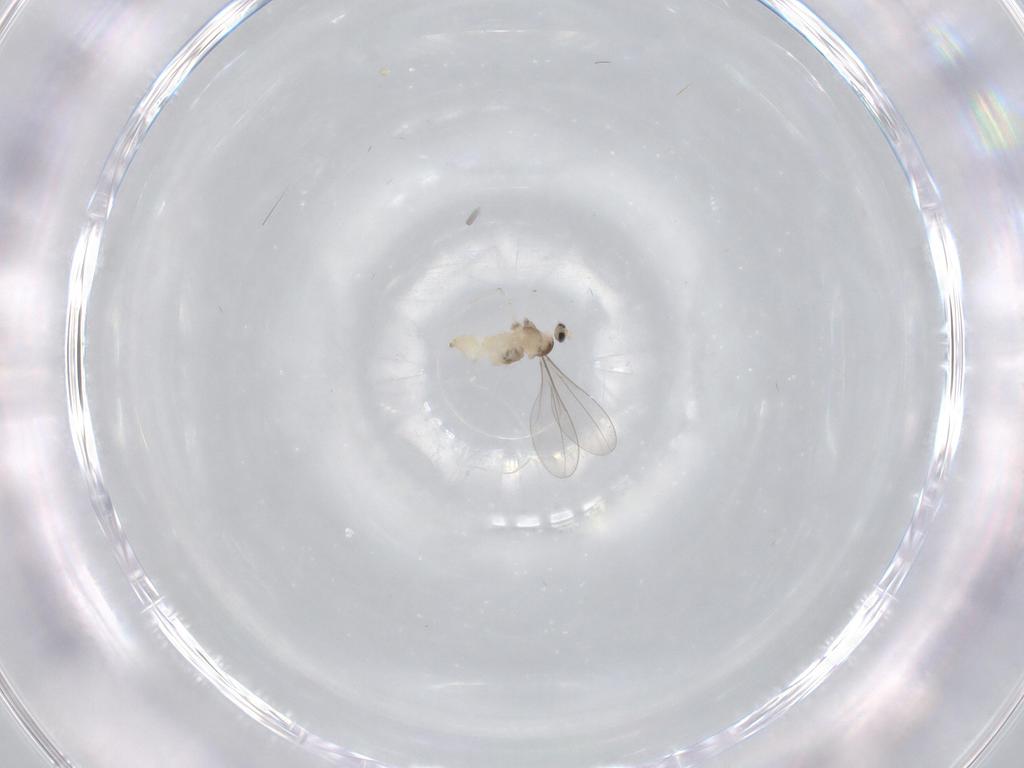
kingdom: Animalia
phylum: Arthropoda
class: Insecta
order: Diptera
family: Cecidomyiidae
